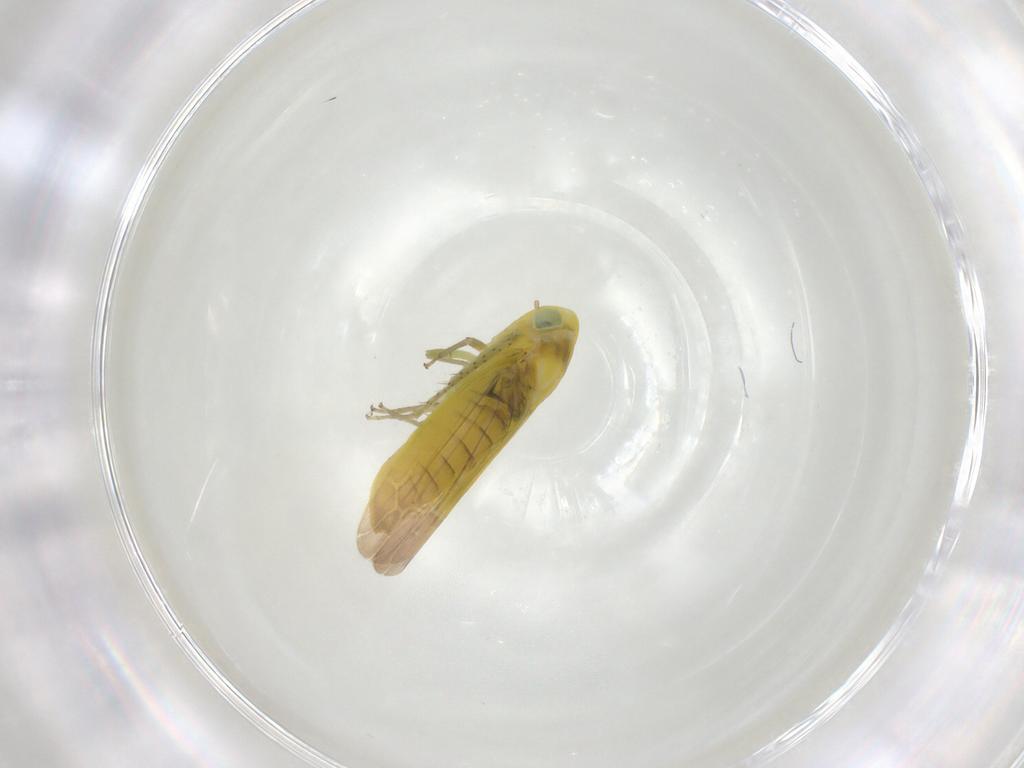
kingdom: Animalia
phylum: Arthropoda
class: Insecta
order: Hemiptera
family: Cicadellidae
